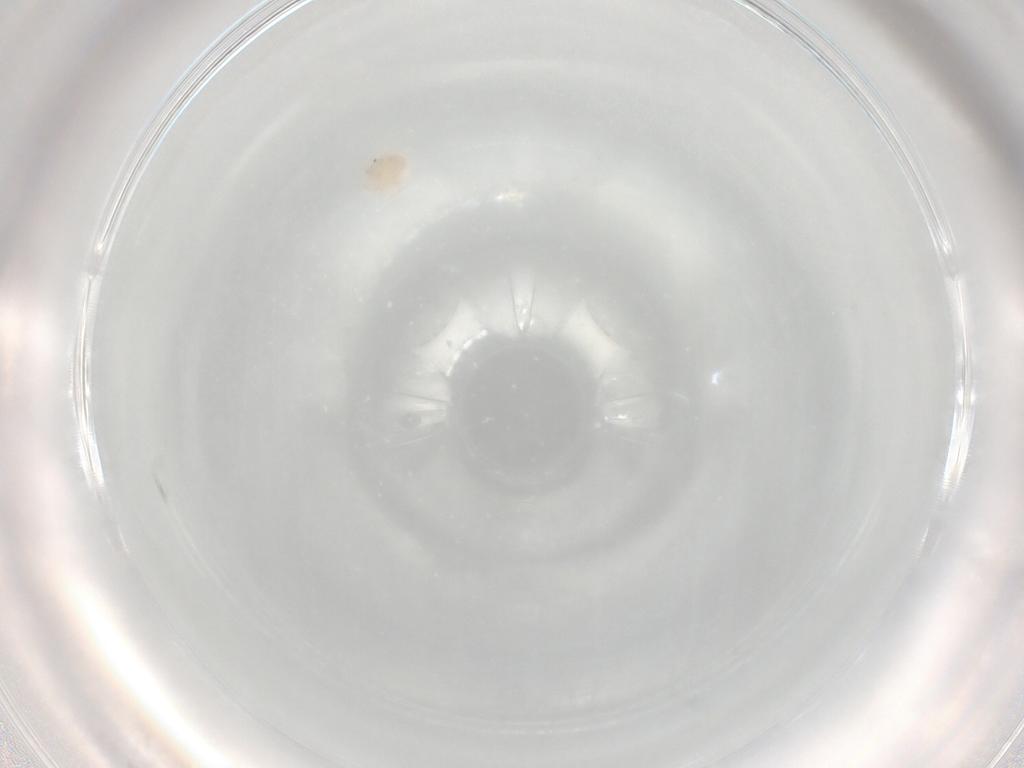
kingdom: Animalia
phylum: Arthropoda
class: Arachnida
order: Trombidiformes
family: Sperchontidae
